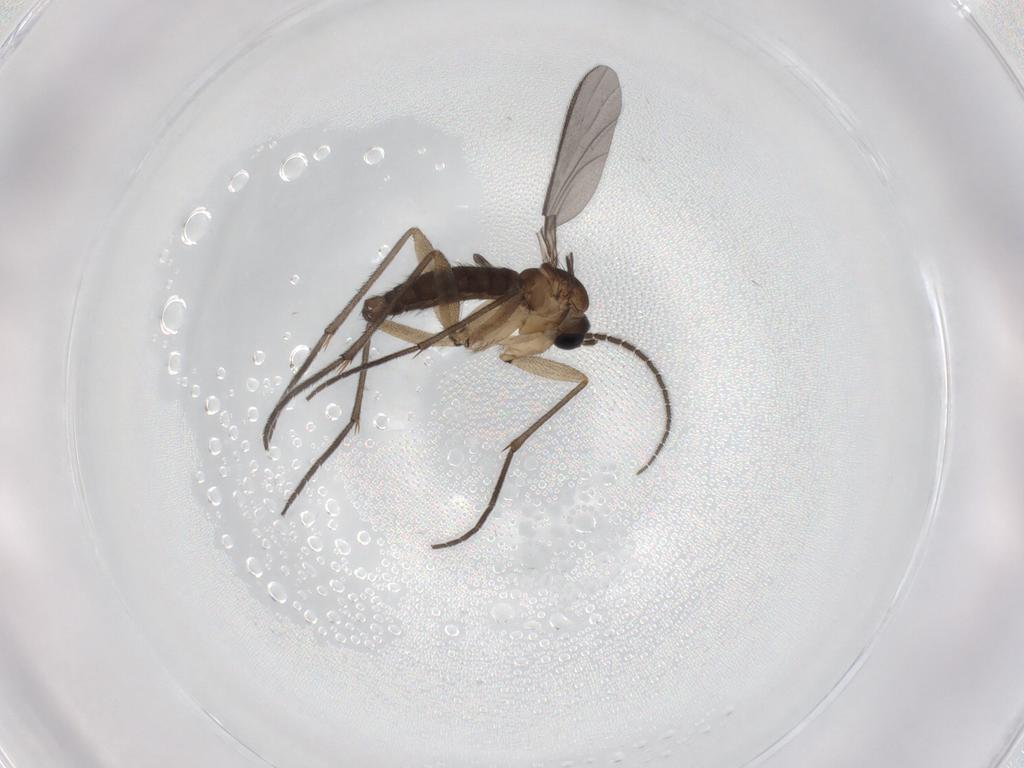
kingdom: Animalia
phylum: Arthropoda
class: Insecta
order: Diptera
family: Sciaridae
